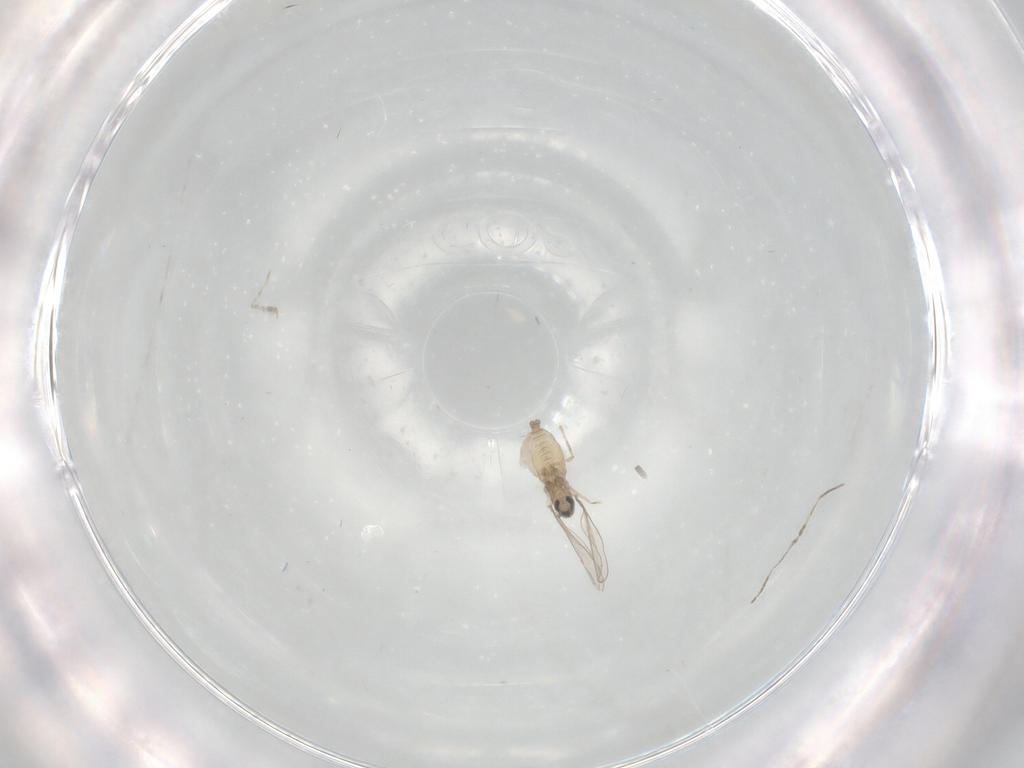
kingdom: Animalia
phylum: Arthropoda
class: Insecta
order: Diptera
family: Cecidomyiidae
